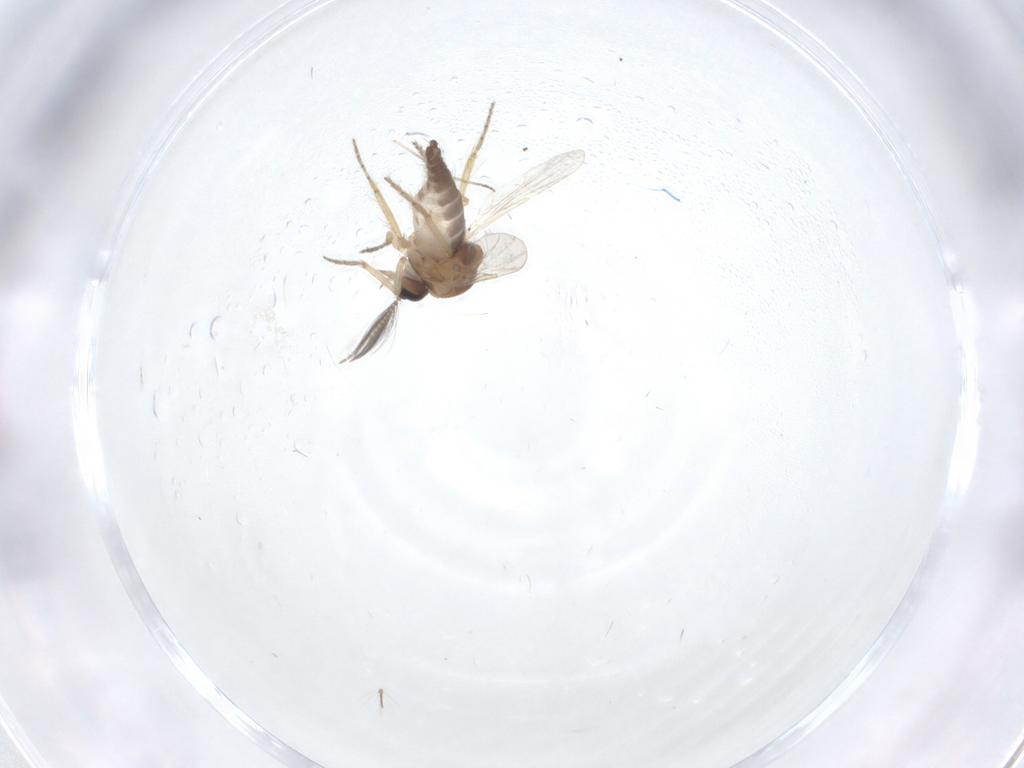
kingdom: Animalia
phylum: Arthropoda
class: Insecta
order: Diptera
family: Ceratopogonidae
